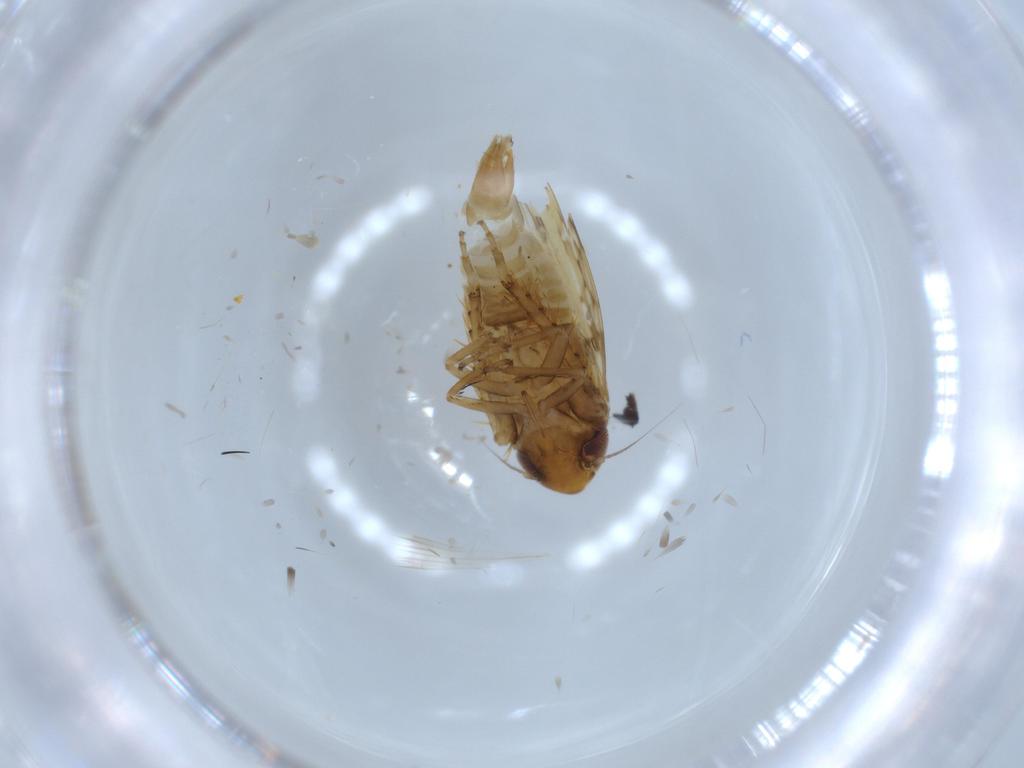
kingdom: Animalia
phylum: Arthropoda
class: Insecta
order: Hemiptera
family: Cicadellidae
